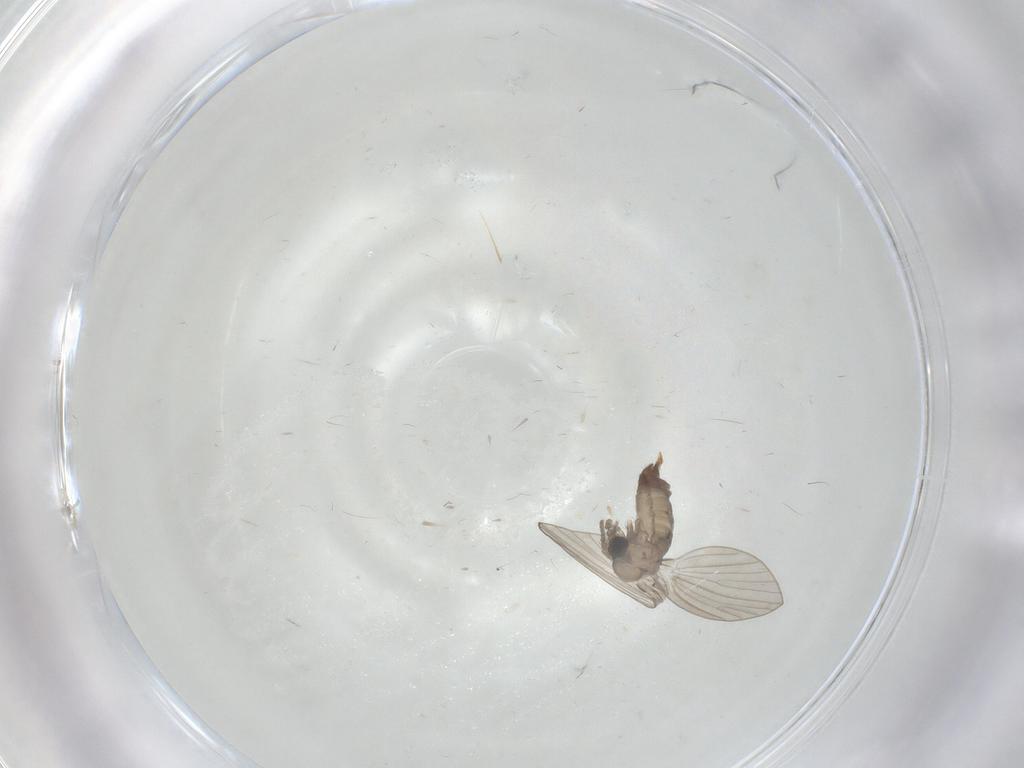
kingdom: Animalia
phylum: Arthropoda
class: Insecta
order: Diptera
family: Psychodidae
